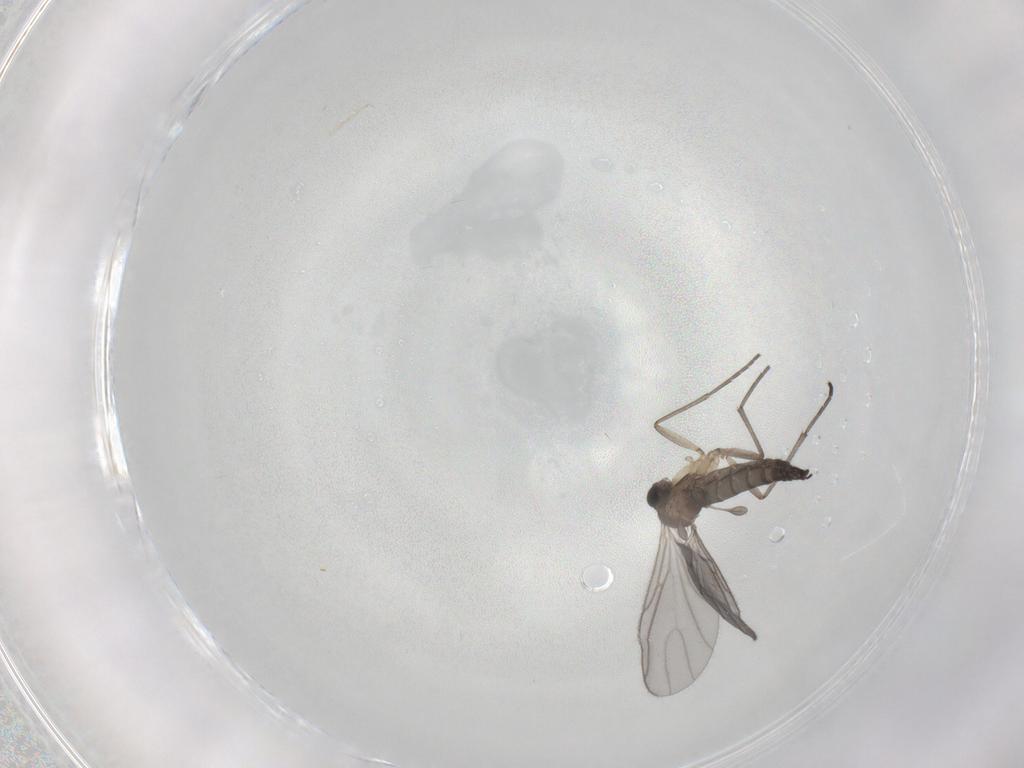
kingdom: Animalia
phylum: Arthropoda
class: Insecta
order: Diptera
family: Sciaridae
